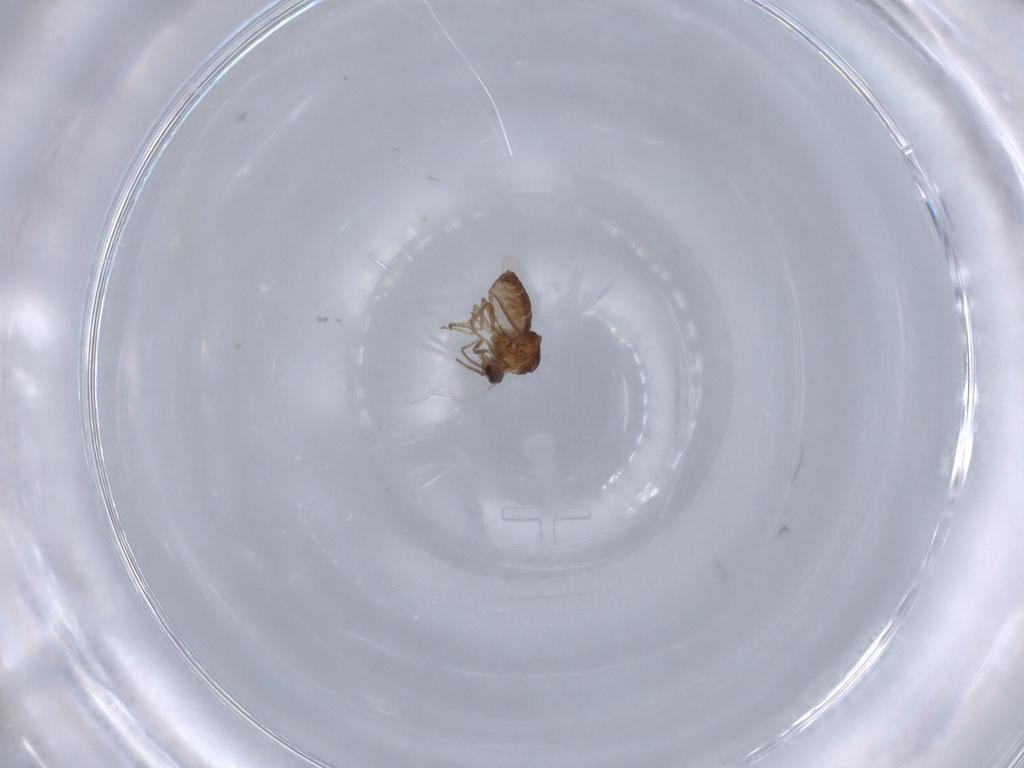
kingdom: Animalia
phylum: Arthropoda
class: Insecta
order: Diptera
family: Ceratopogonidae
